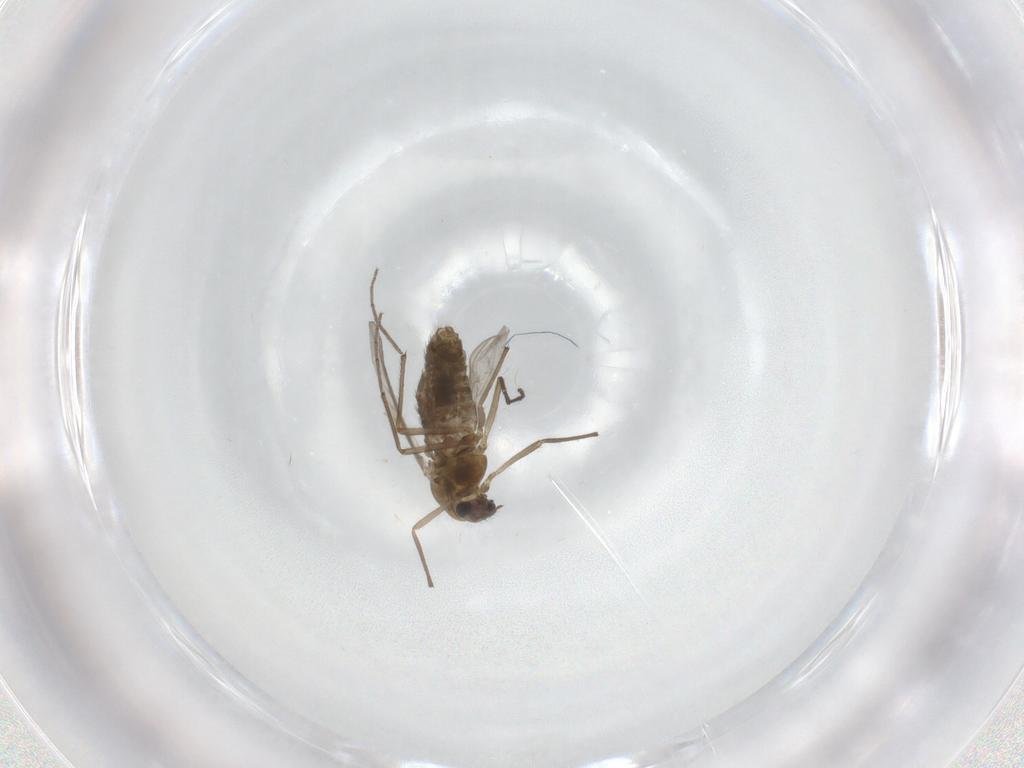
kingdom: Animalia
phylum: Arthropoda
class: Insecta
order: Diptera
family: Chironomidae
